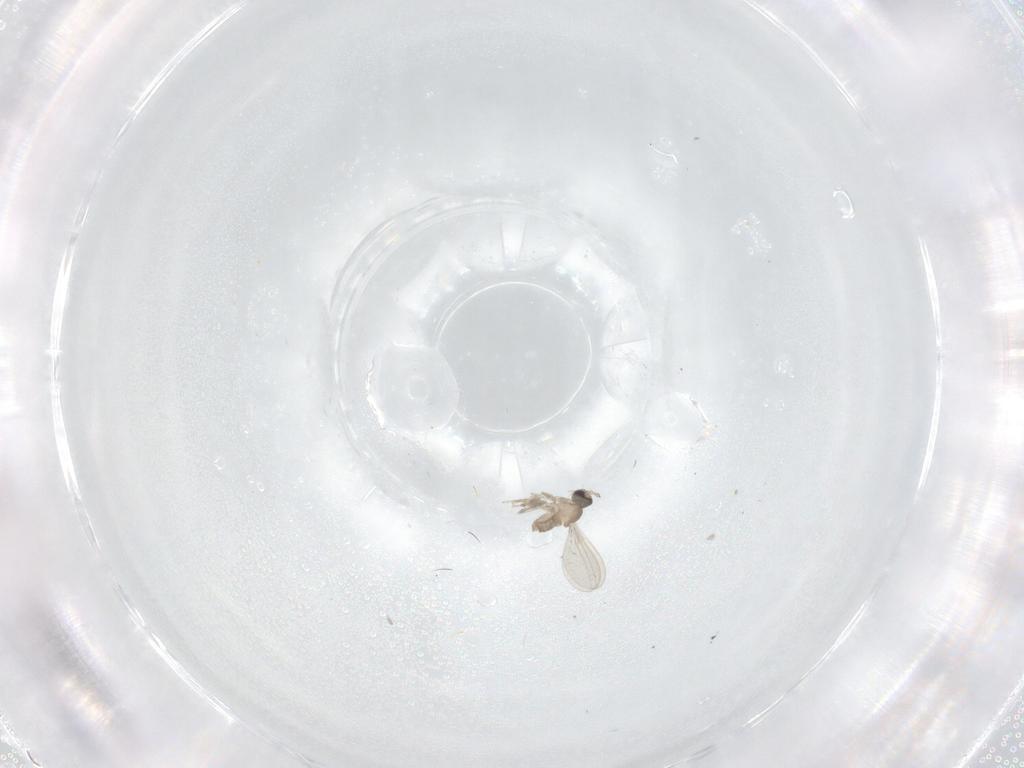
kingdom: Animalia
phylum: Arthropoda
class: Insecta
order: Diptera
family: Cecidomyiidae
